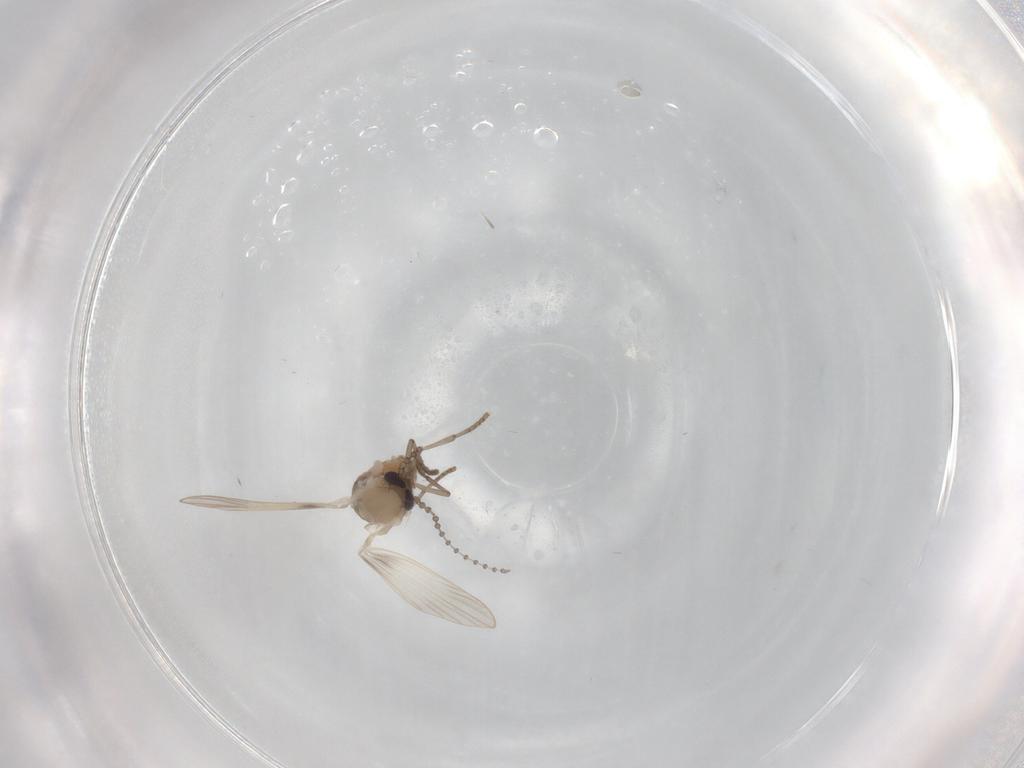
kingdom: Animalia
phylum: Arthropoda
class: Insecta
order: Diptera
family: Psychodidae
